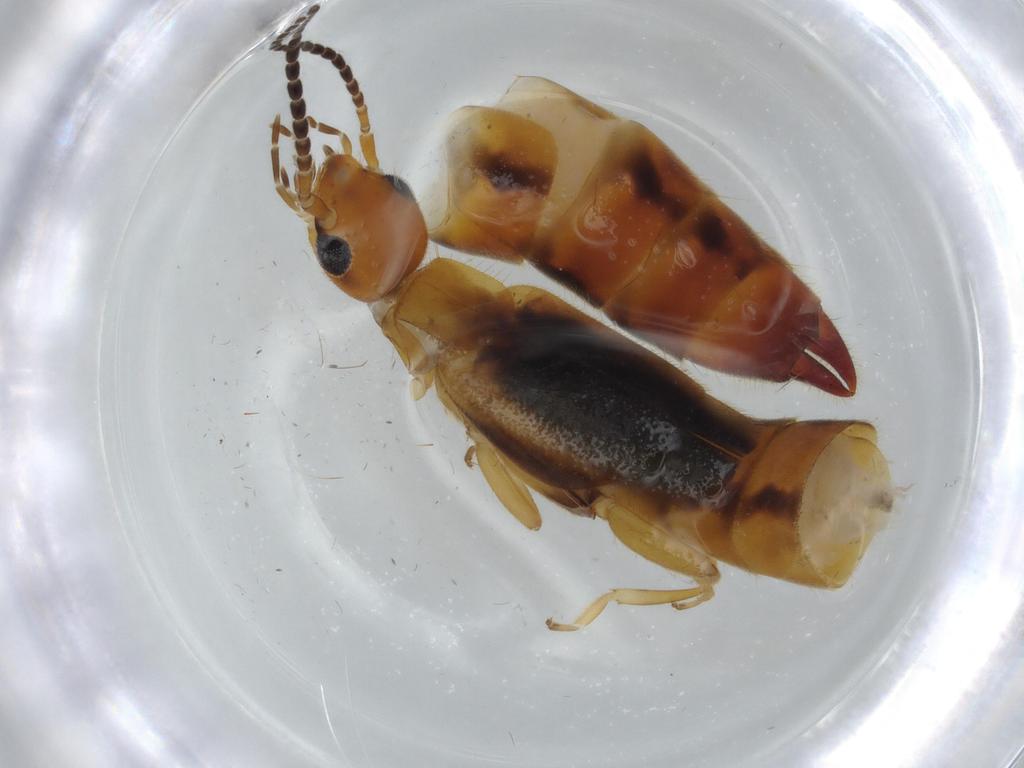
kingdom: Animalia
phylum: Arthropoda
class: Insecta
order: Dermaptera
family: Forficulidae
